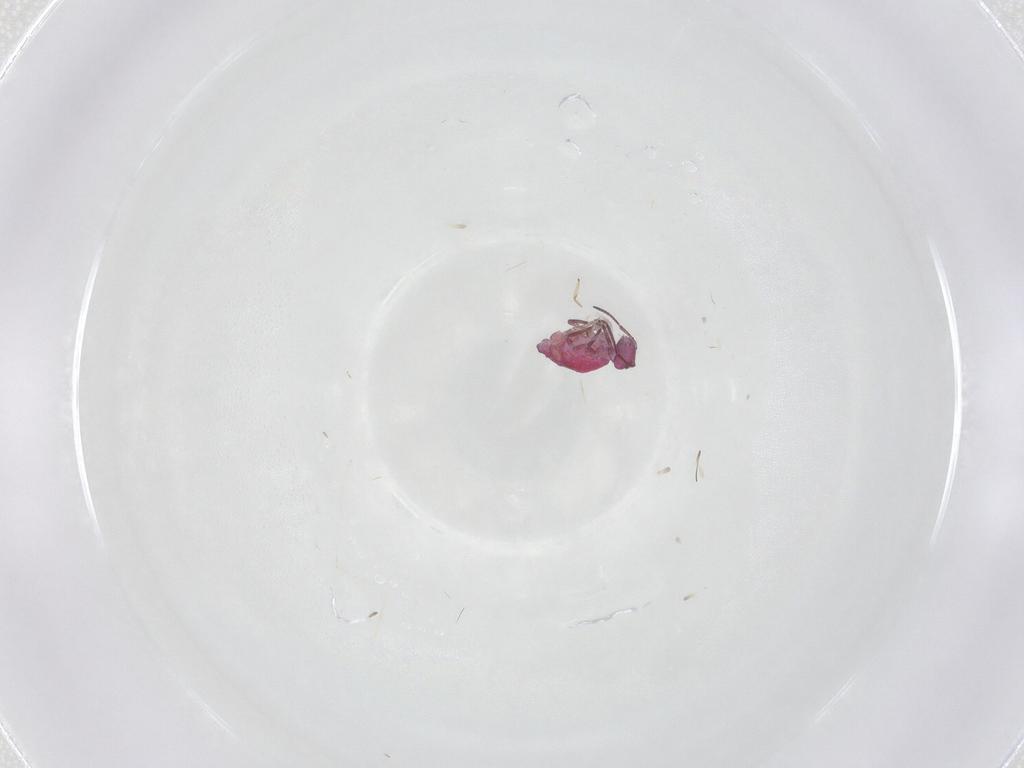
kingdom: Animalia
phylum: Arthropoda
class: Collembola
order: Symphypleona
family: Sminthuridae
